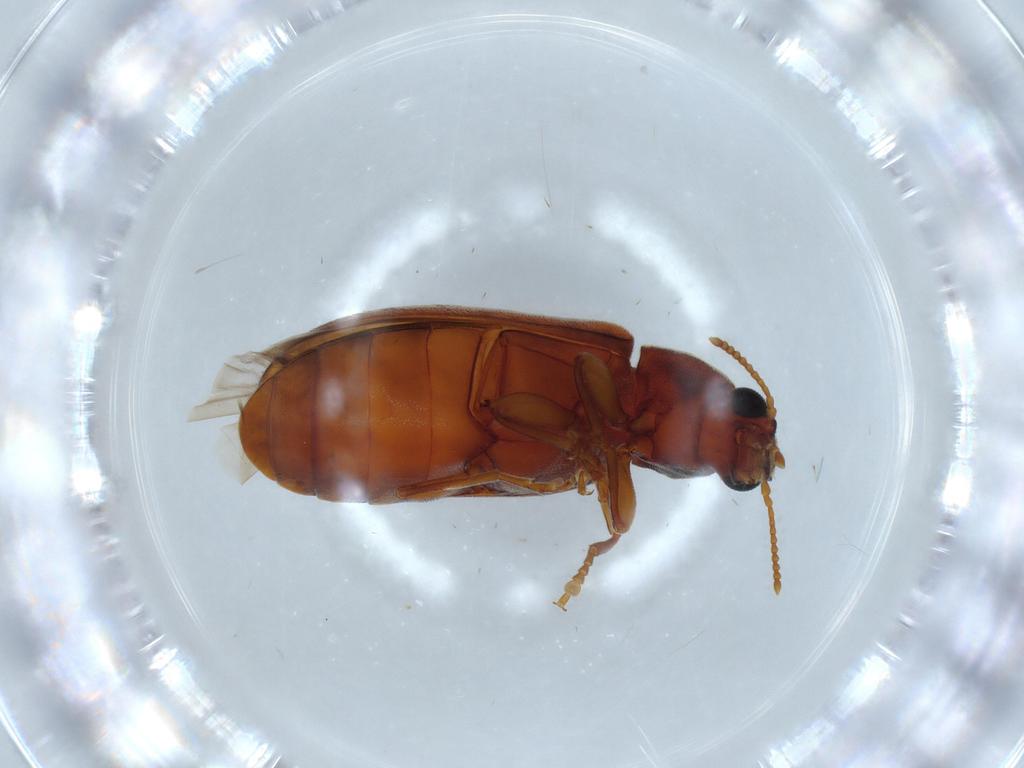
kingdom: Animalia
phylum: Arthropoda
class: Insecta
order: Coleoptera
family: Mycteridae
